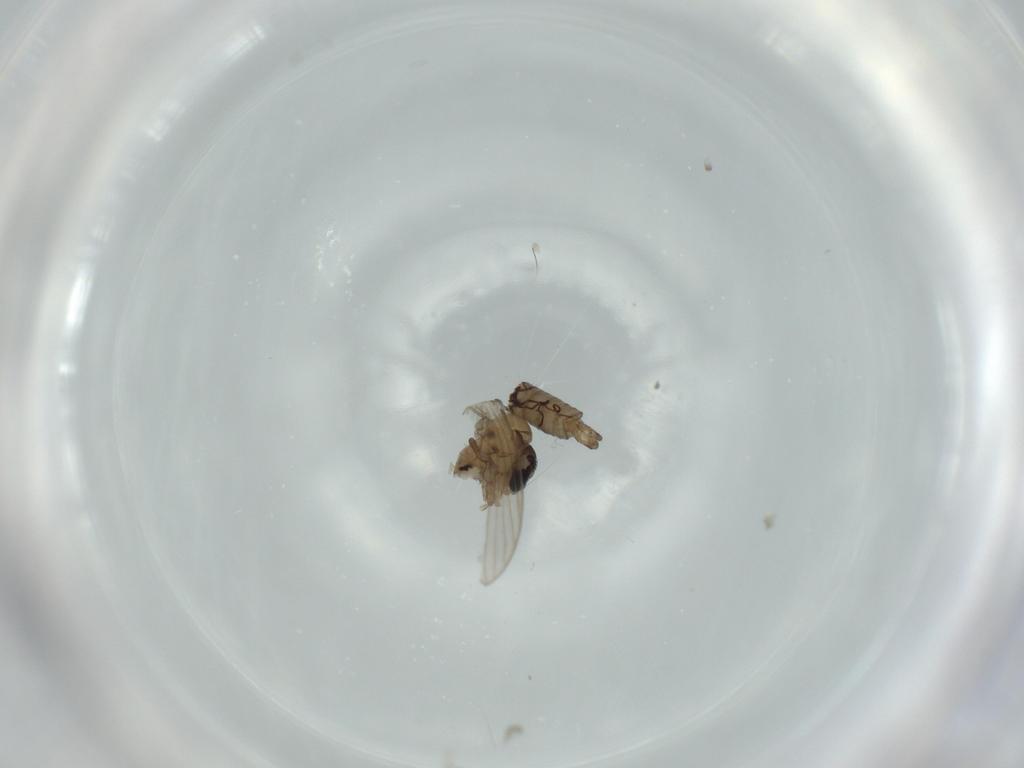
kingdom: Animalia
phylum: Arthropoda
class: Insecta
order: Diptera
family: Psychodidae
